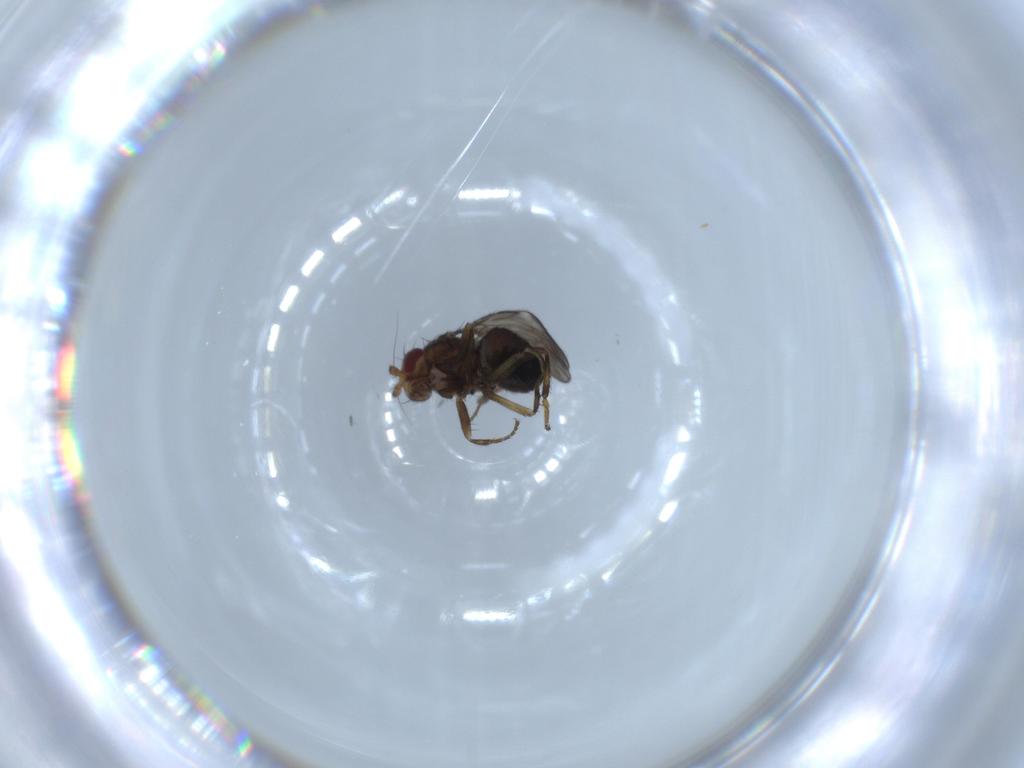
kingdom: Animalia
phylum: Arthropoda
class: Insecta
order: Diptera
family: Sphaeroceridae
